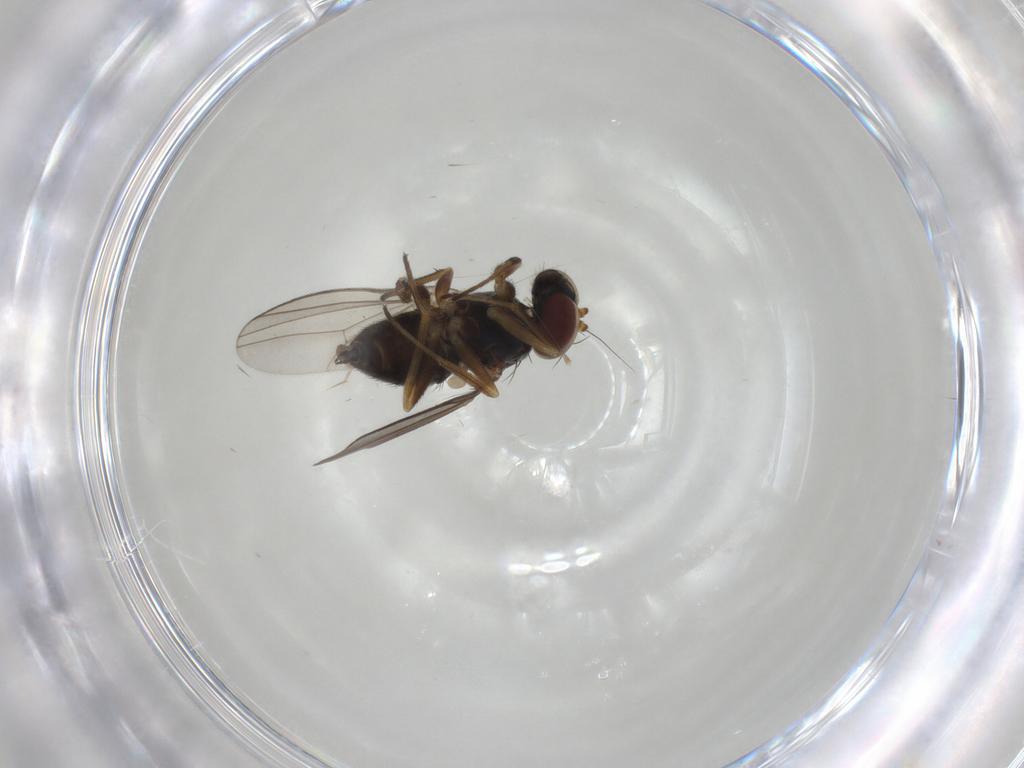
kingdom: Animalia
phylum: Arthropoda
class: Insecta
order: Diptera
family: Dolichopodidae
